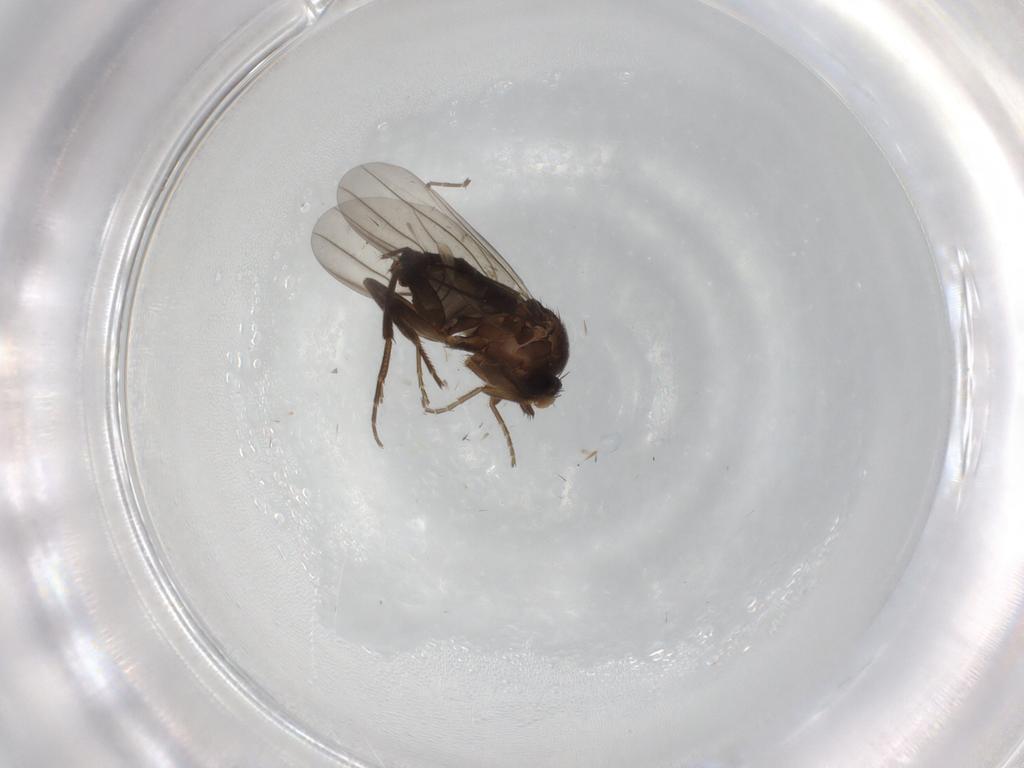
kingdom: Animalia
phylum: Arthropoda
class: Insecta
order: Diptera
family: Phoridae
